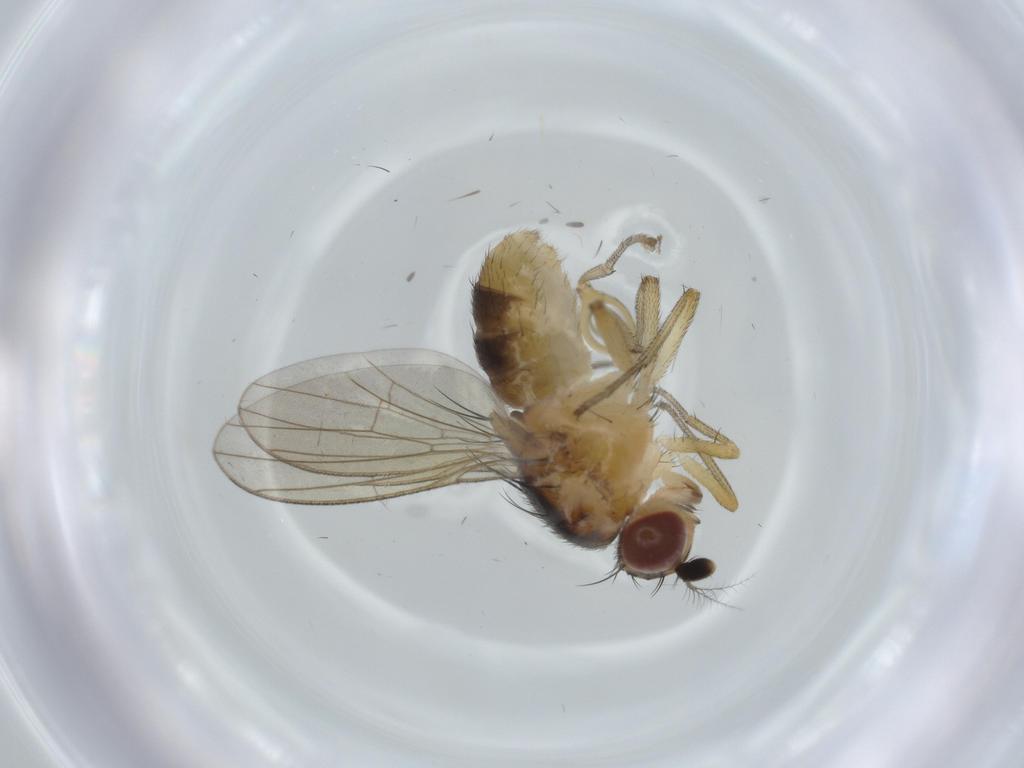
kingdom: Animalia
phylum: Arthropoda
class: Insecta
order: Diptera
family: Lauxaniidae
